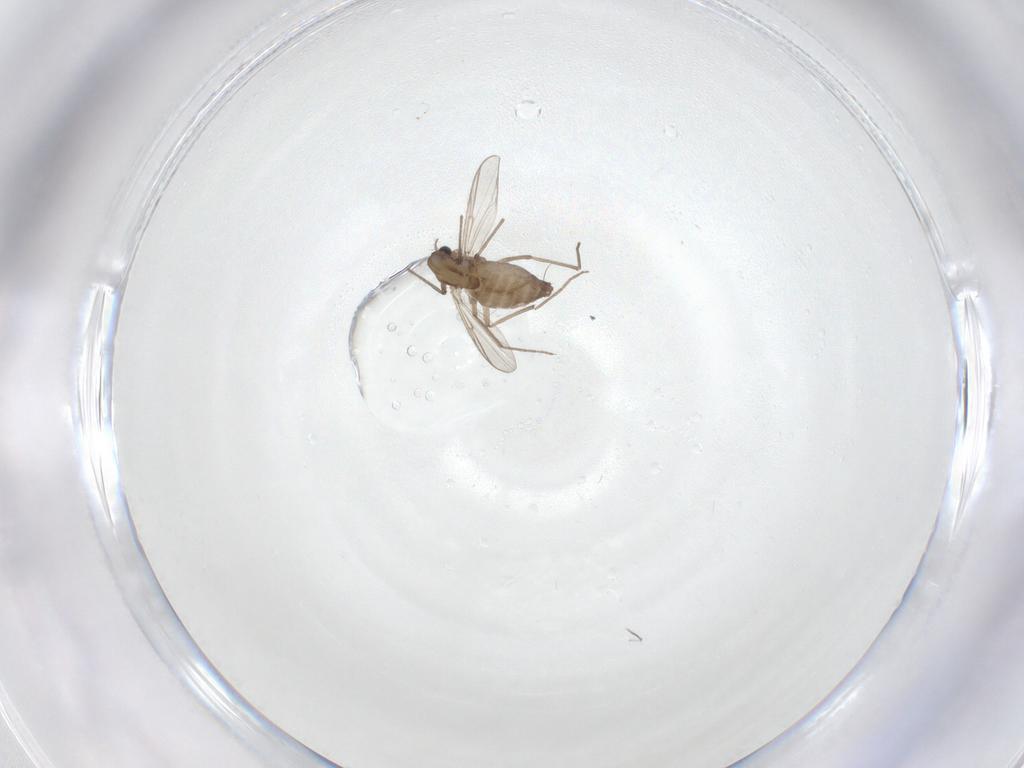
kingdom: Animalia
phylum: Arthropoda
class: Insecta
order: Diptera
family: Chironomidae
